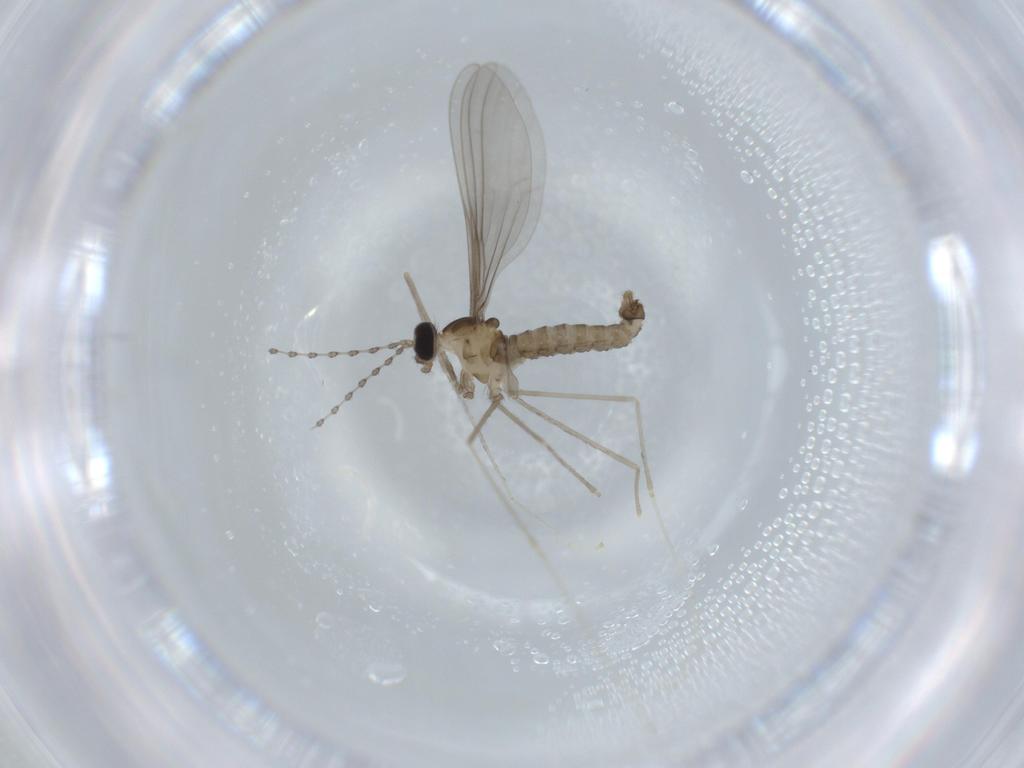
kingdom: Animalia
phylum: Arthropoda
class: Insecta
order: Diptera
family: Cecidomyiidae
